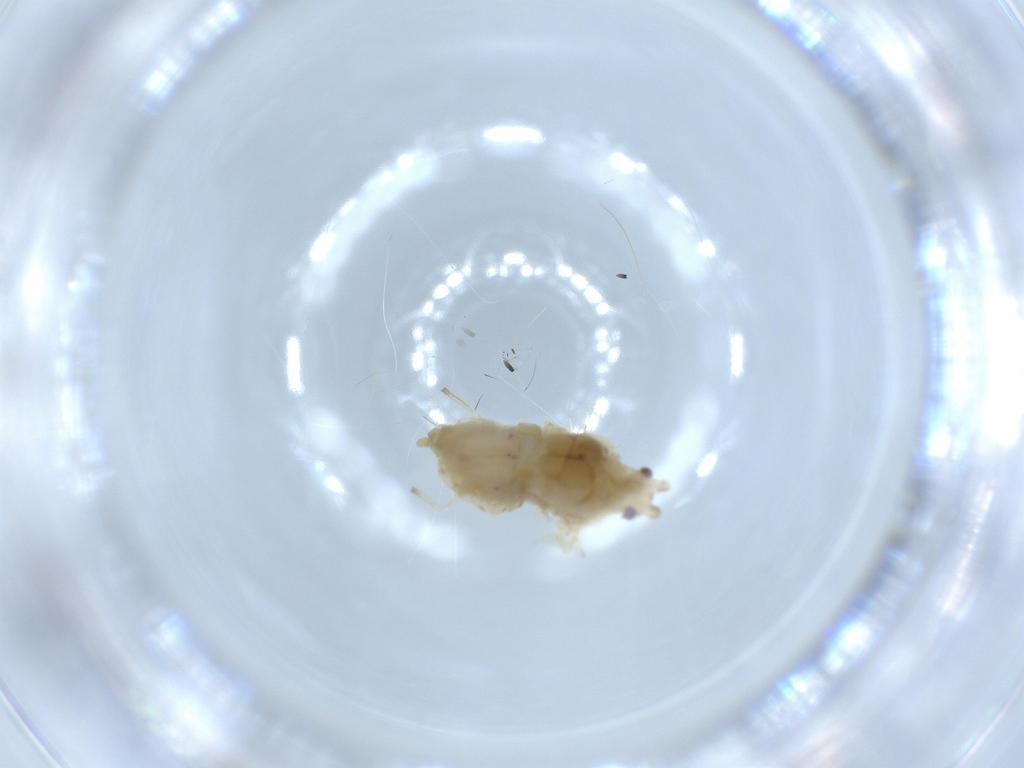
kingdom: Animalia
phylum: Arthropoda
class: Insecta
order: Hemiptera
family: Aphididae
